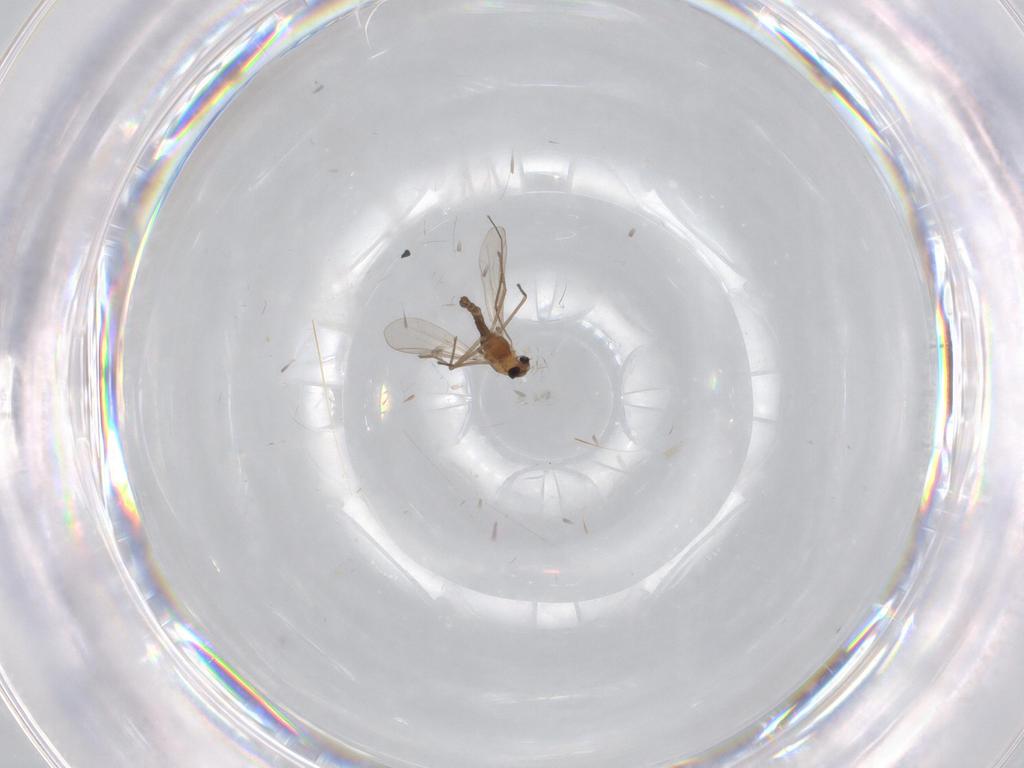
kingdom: Animalia
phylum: Arthropoda
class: Insecta
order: Diptera
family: Chironomidae
